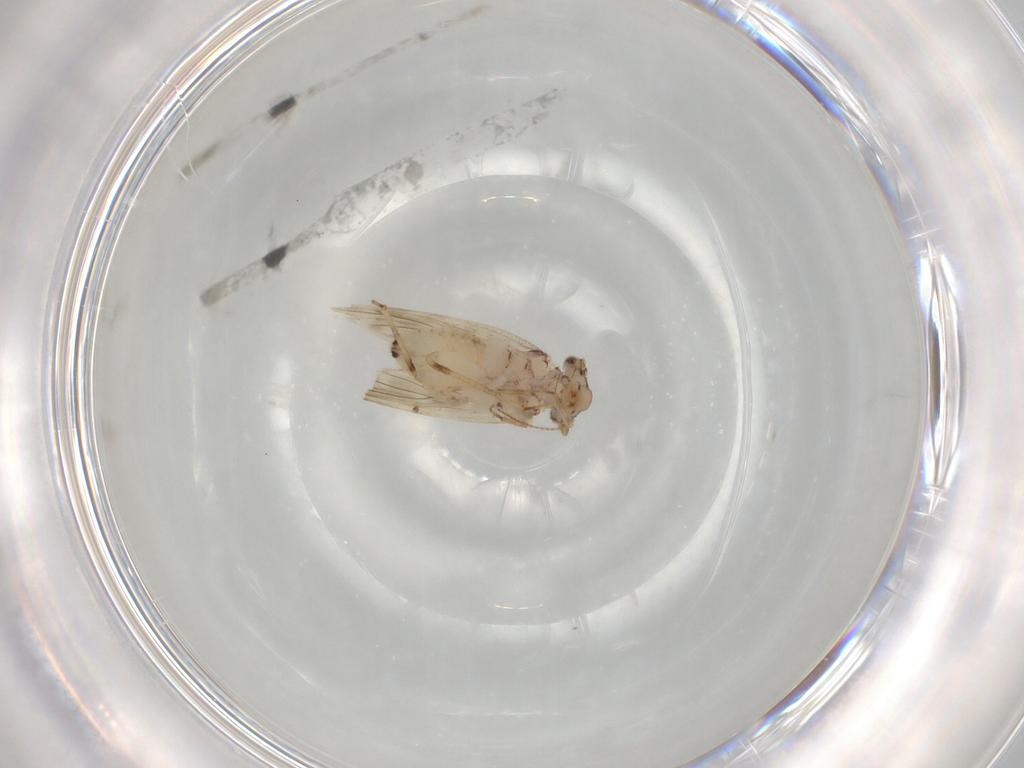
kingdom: Animalia
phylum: Arthropoda
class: Insecta
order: Psocodea
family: Lepidopsocidae
